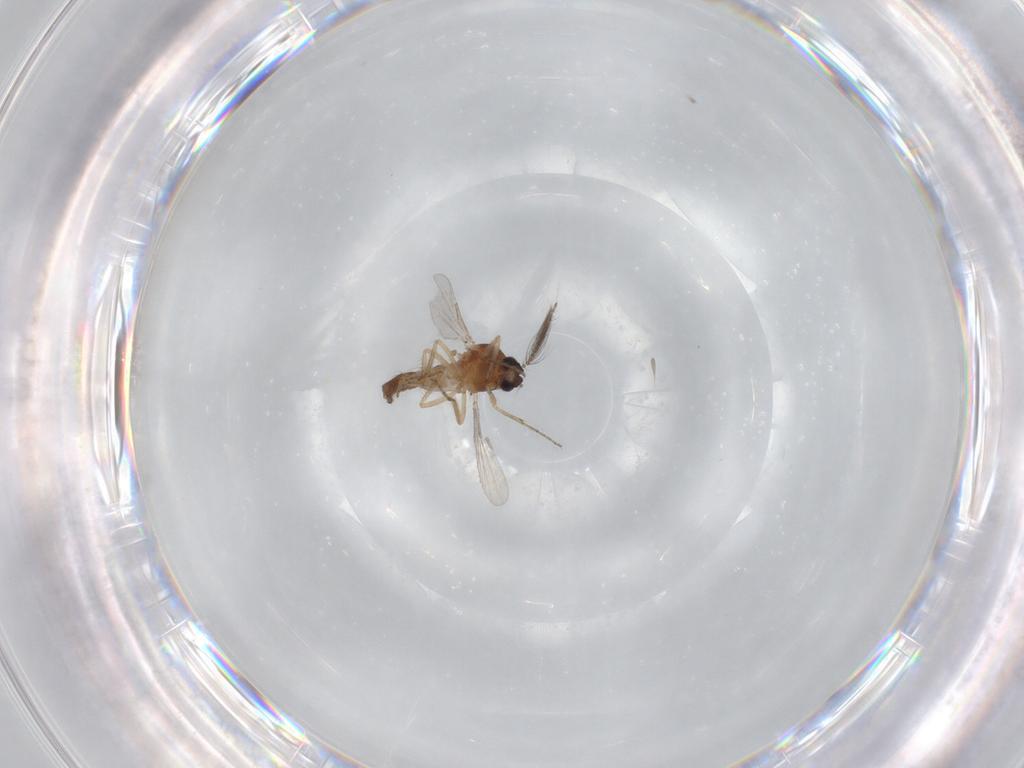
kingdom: Animalia
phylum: Arthropoda
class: Insecta
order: Diptera
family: Ceratopogonidae
